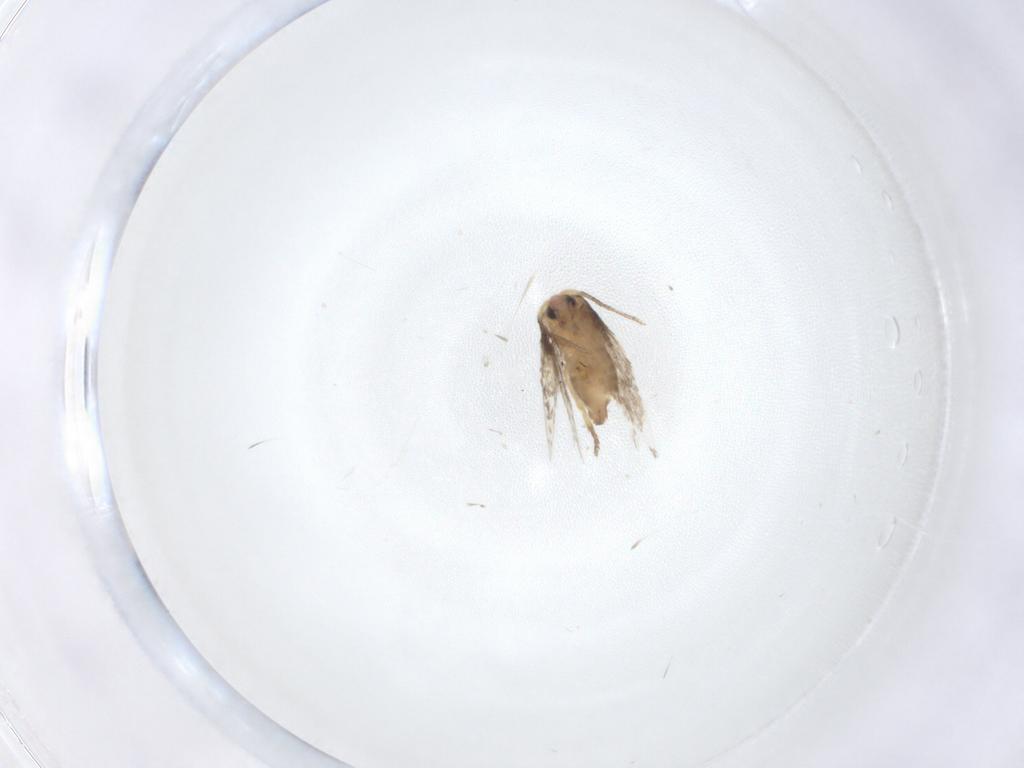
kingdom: Animalia
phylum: Arthropoda
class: Insecta
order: Lepidoptera
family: Nepticulidae
